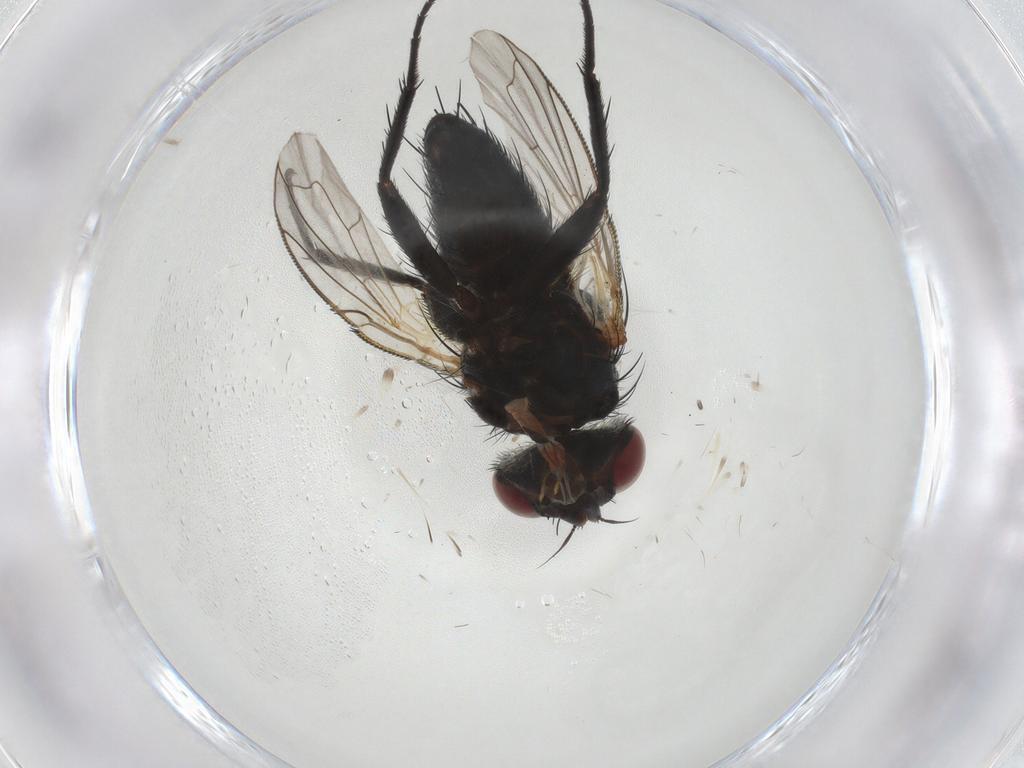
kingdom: Animalia
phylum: Arthropoda
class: Insecta
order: Diptera
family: Tachinidae
